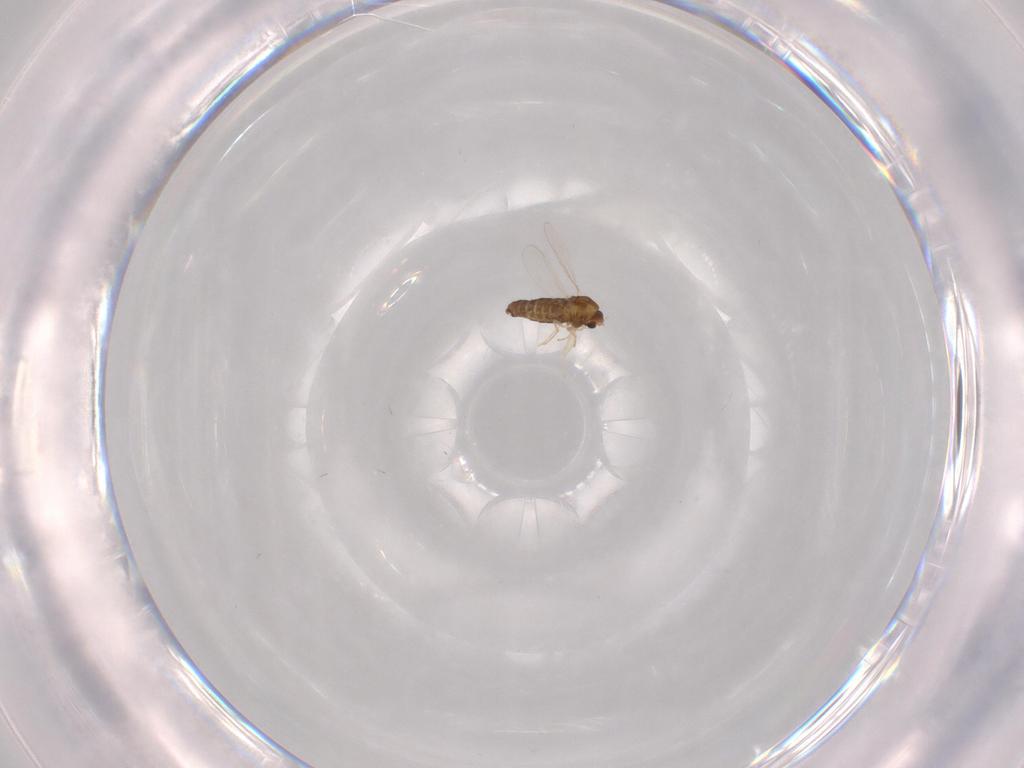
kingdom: Animalia
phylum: Arthropoda
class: Insecta
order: Diptera
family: Chironomidae
